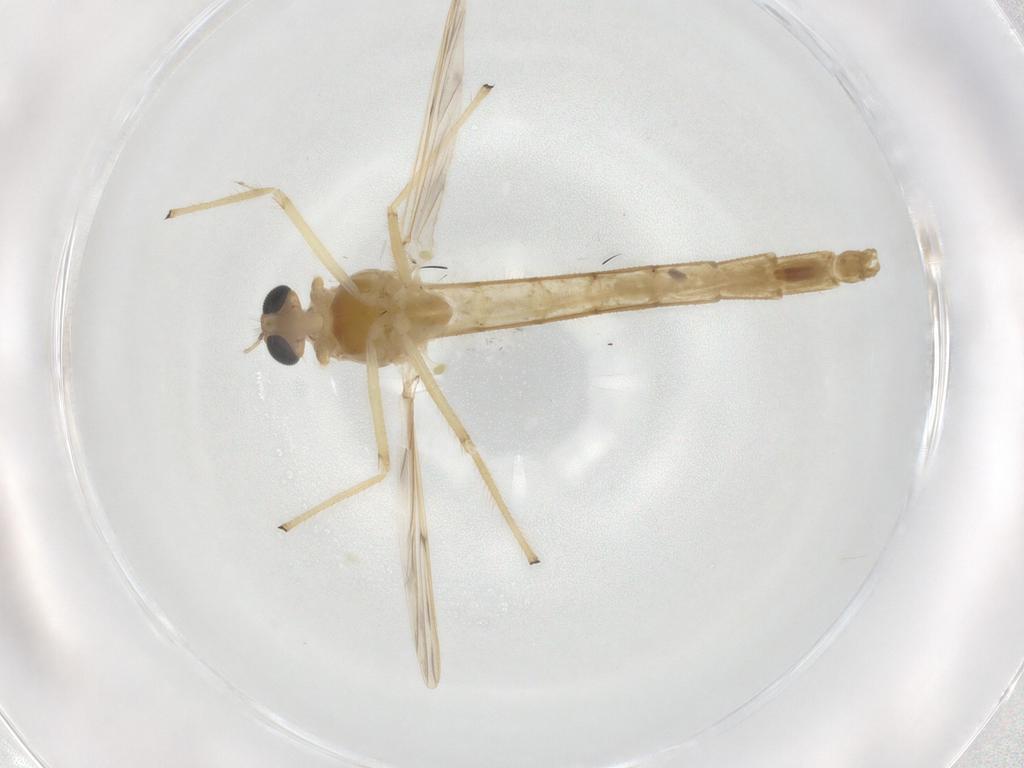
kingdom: Animalia
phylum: Arthropoda
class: Insecta
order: Diptera
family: Chironomidae
